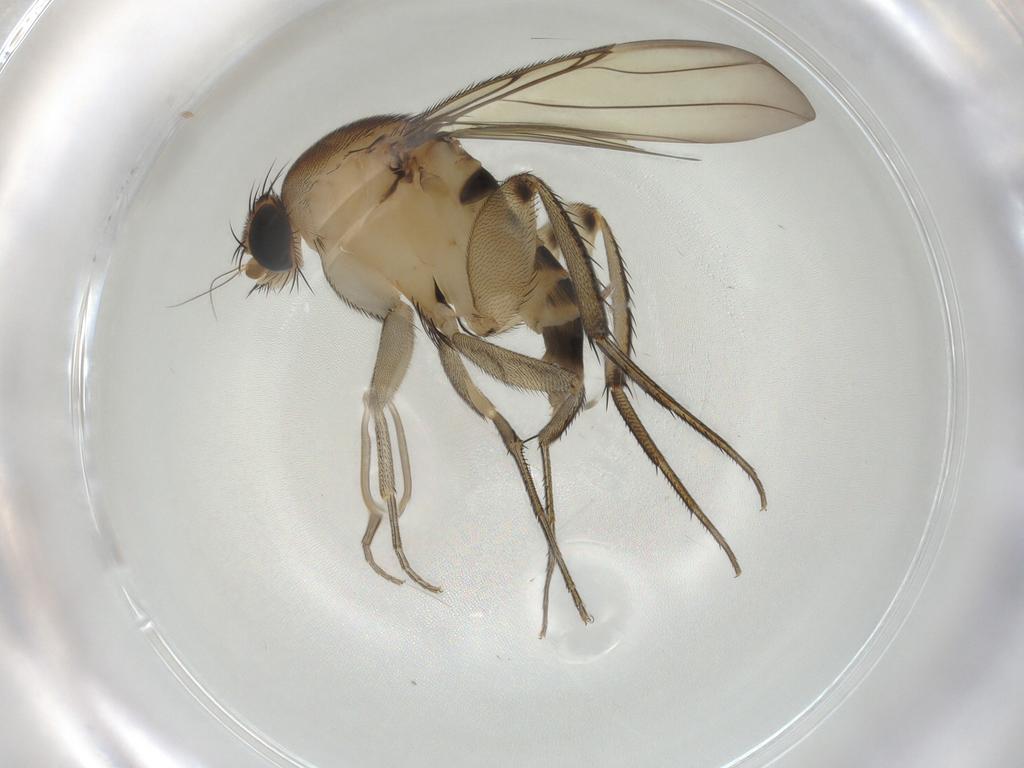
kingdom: Animalia
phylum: Arthropoda
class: Insecta
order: Diptera
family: Phoridae
